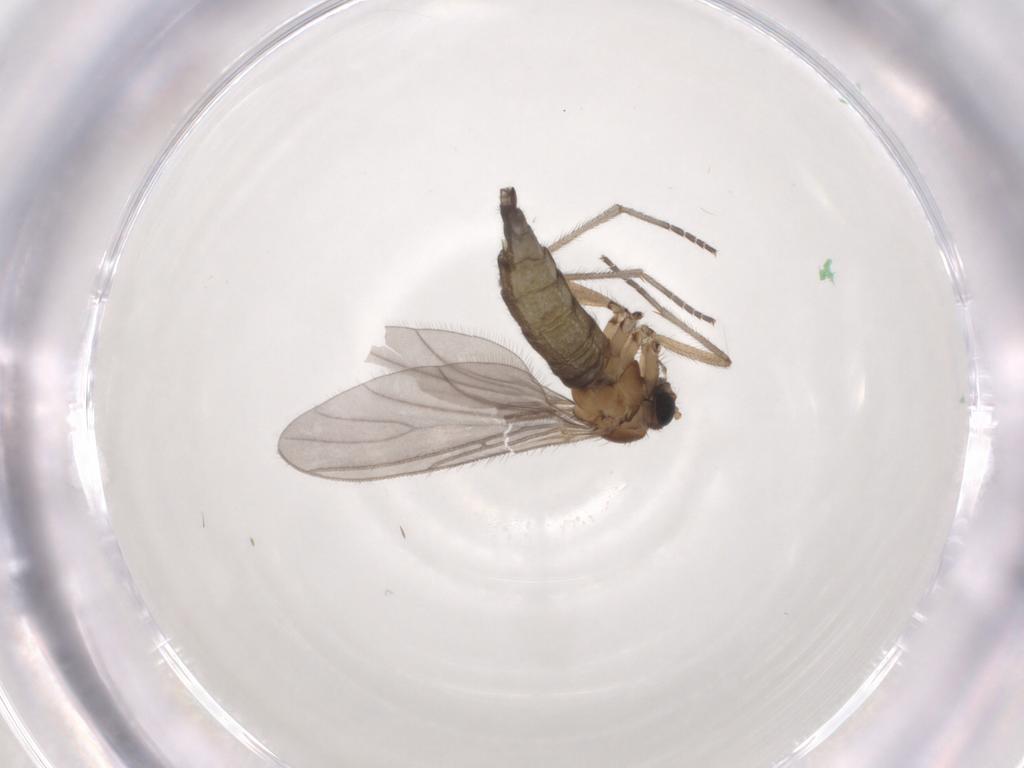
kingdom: Animalia
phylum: Arthropoda
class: Insecta
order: Diptera
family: Sciaridae
